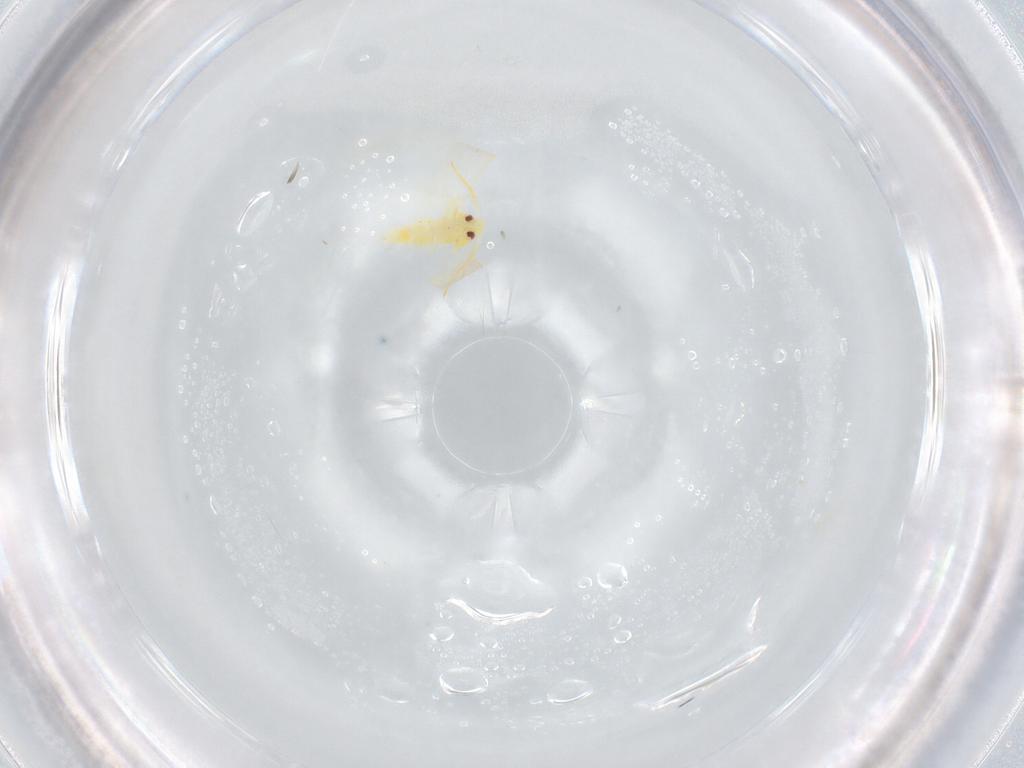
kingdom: Animalia
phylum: Arthropoda
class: Insecta
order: Hemiptera
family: Aleyrodidae
